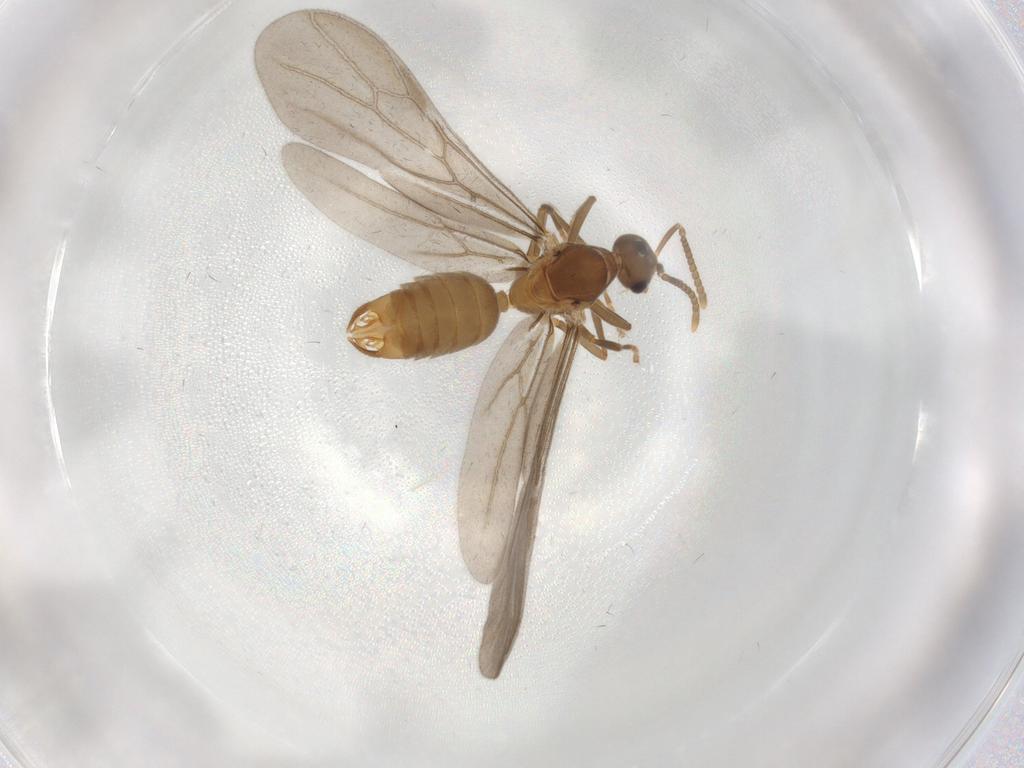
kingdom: Animalia
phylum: Arthropoda
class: Insecta
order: Hymenoptera
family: Formicidae
